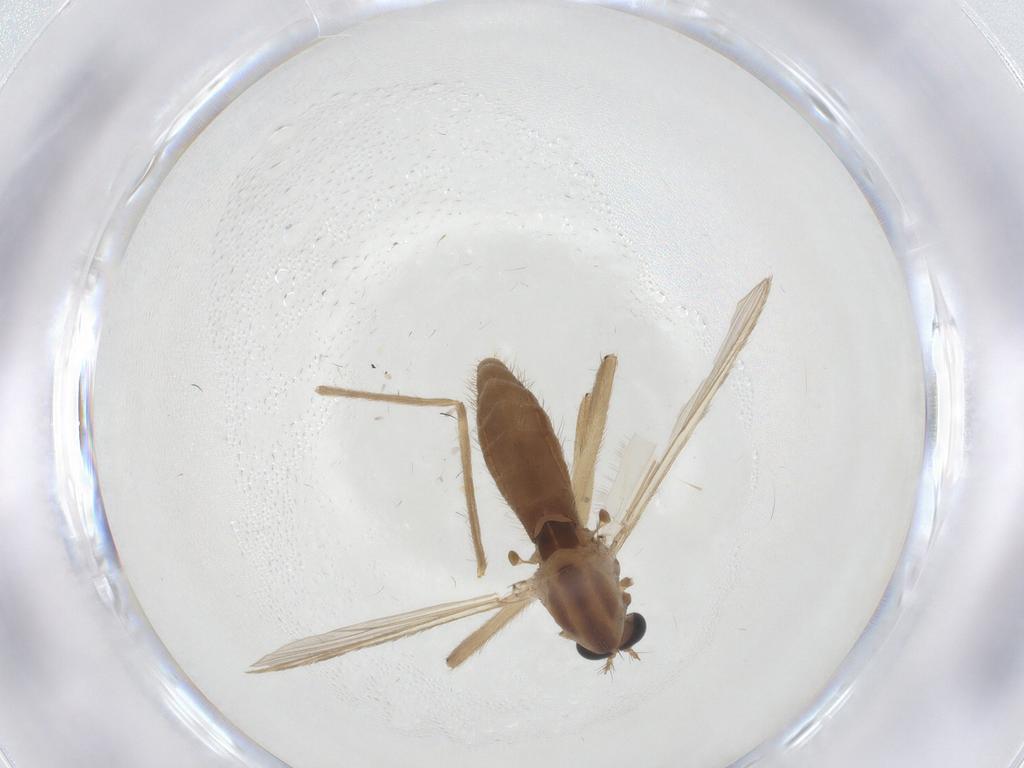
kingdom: Animalia
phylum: Arthropoda
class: Insecta
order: Diptera
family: Chironomidae
